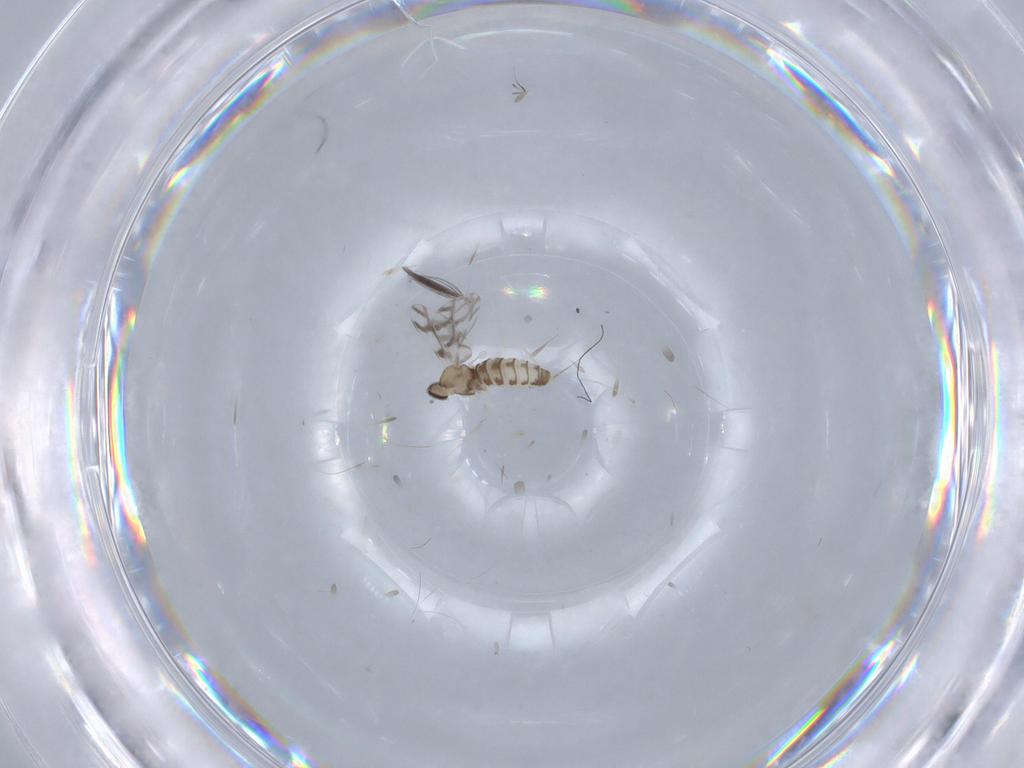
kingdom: Animalia
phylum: Arthropoda
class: Insecta
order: Diptera
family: Cecidomyiidae
